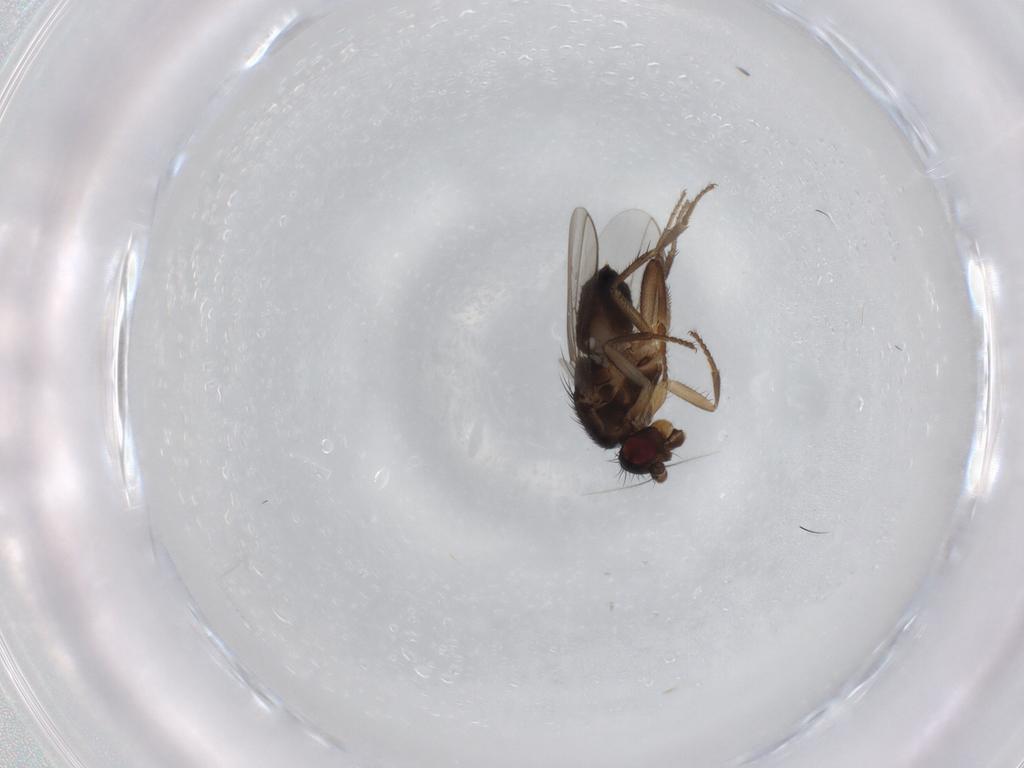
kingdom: Animalia
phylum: Arthropoda
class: Insecta
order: Diptera
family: Sphaeroceridae
